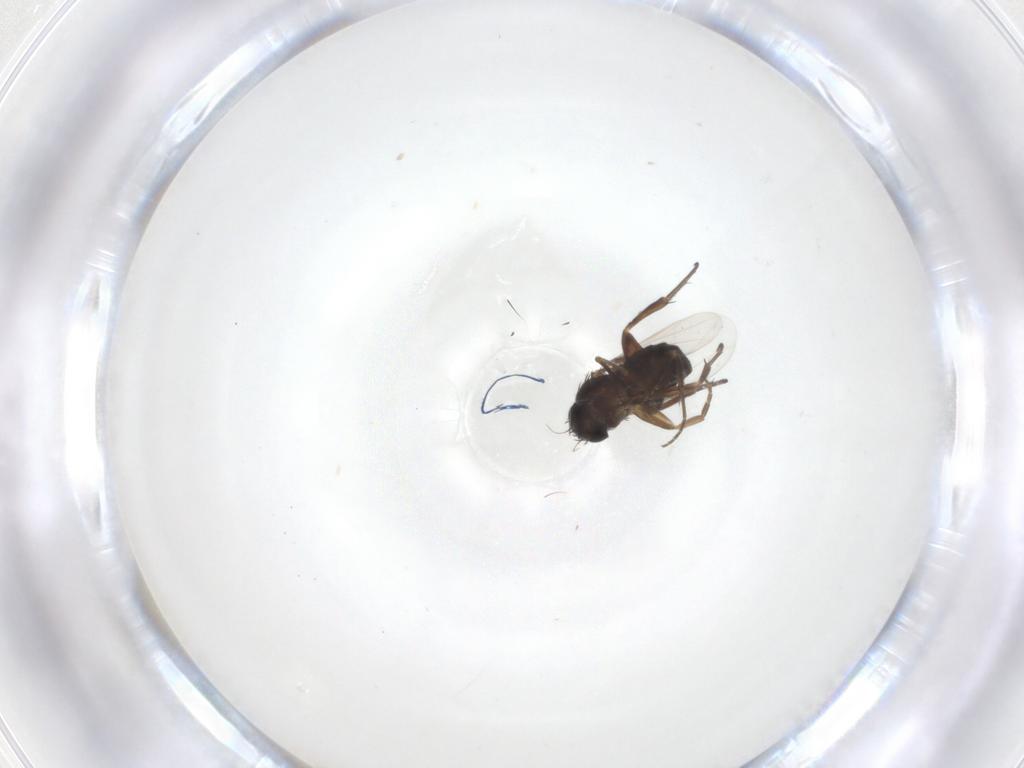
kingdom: Animalia
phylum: Arthropoda
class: Insecta
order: Diptera
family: Phoridae
